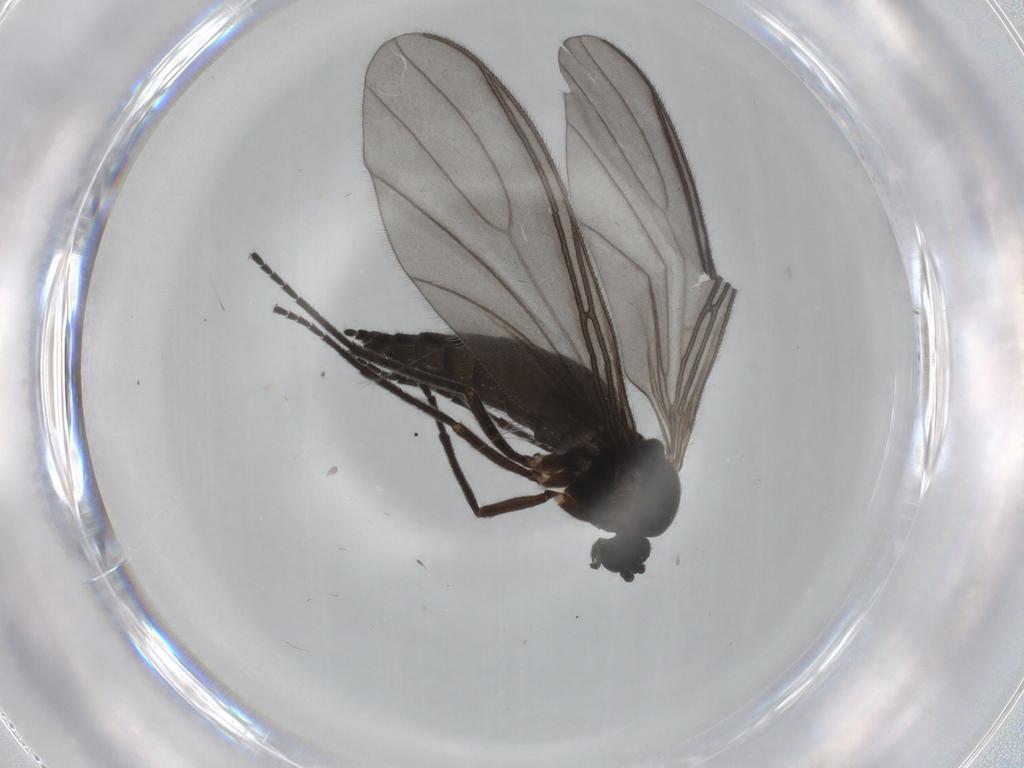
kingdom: Animalia
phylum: Arthropoda
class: Insecta
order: Diptera
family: Sciaridae
